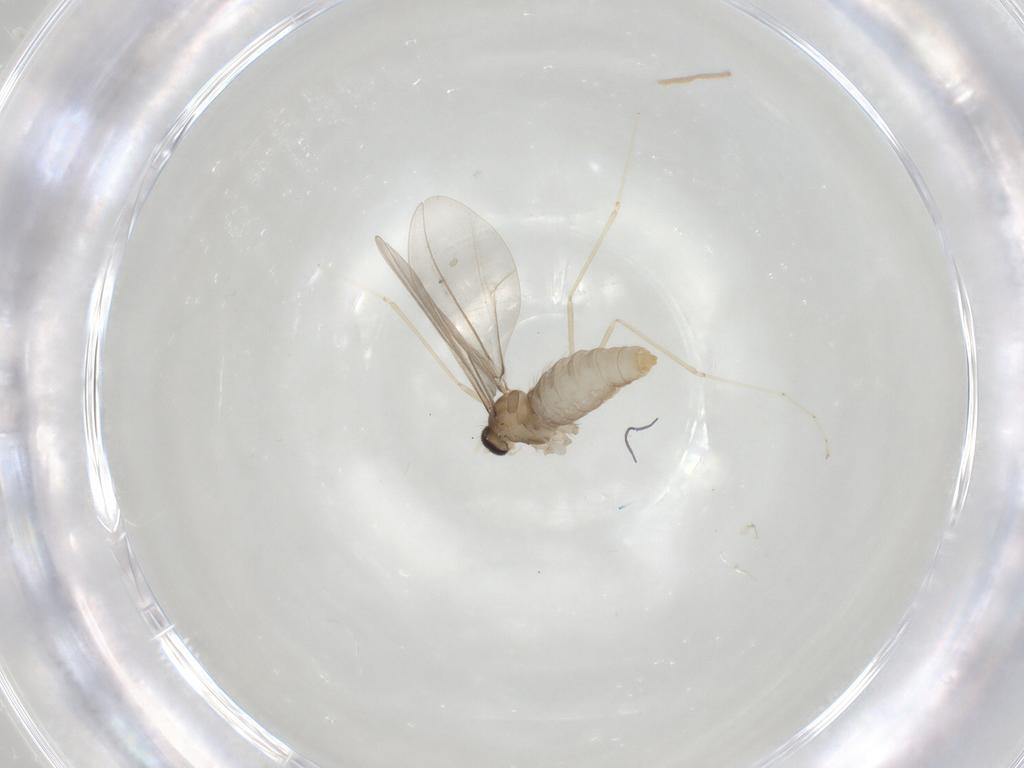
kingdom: Animalia
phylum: Arthropoda
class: Insecta
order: Diptera
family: Cecidomyiidae
